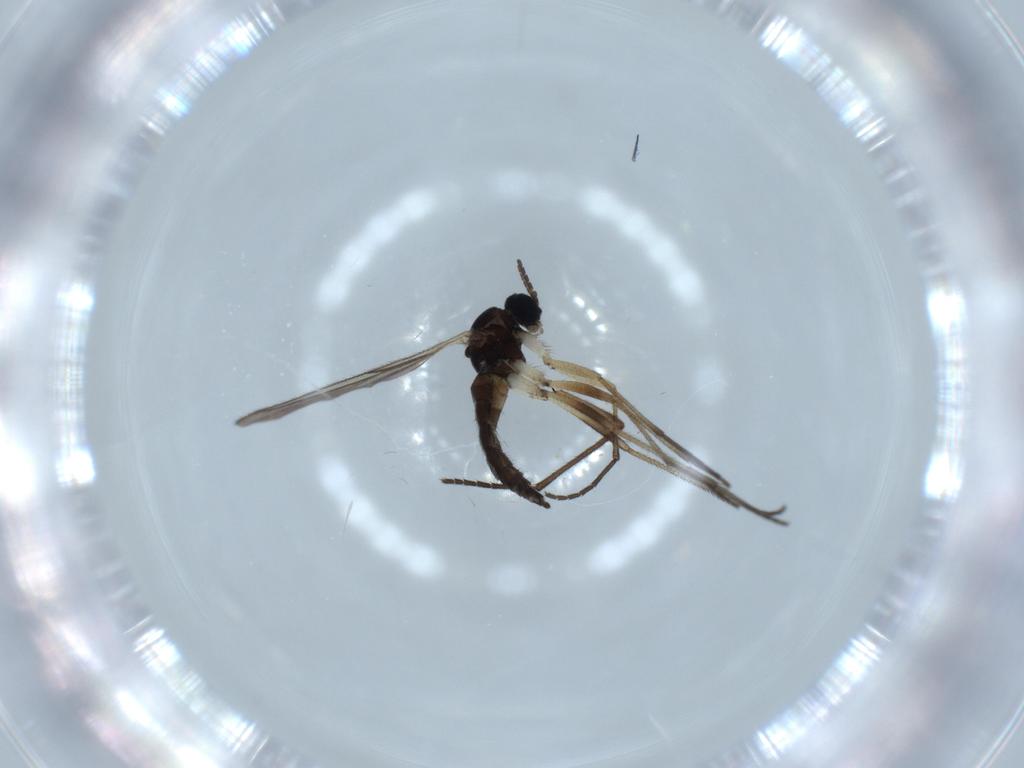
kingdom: Animalia
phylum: Arthropoda
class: Insecta
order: Diptera
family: Sciaridae
